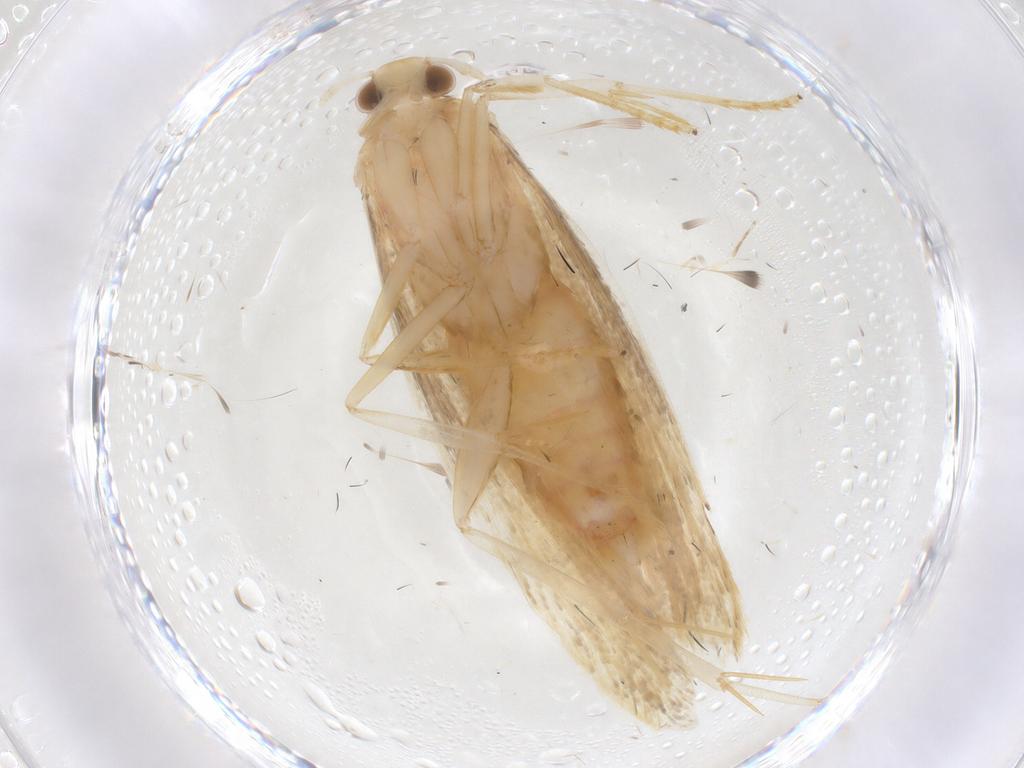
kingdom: Animalia
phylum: Arthropoda
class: Insecta
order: Lepidoptera
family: Lecithoceridae
